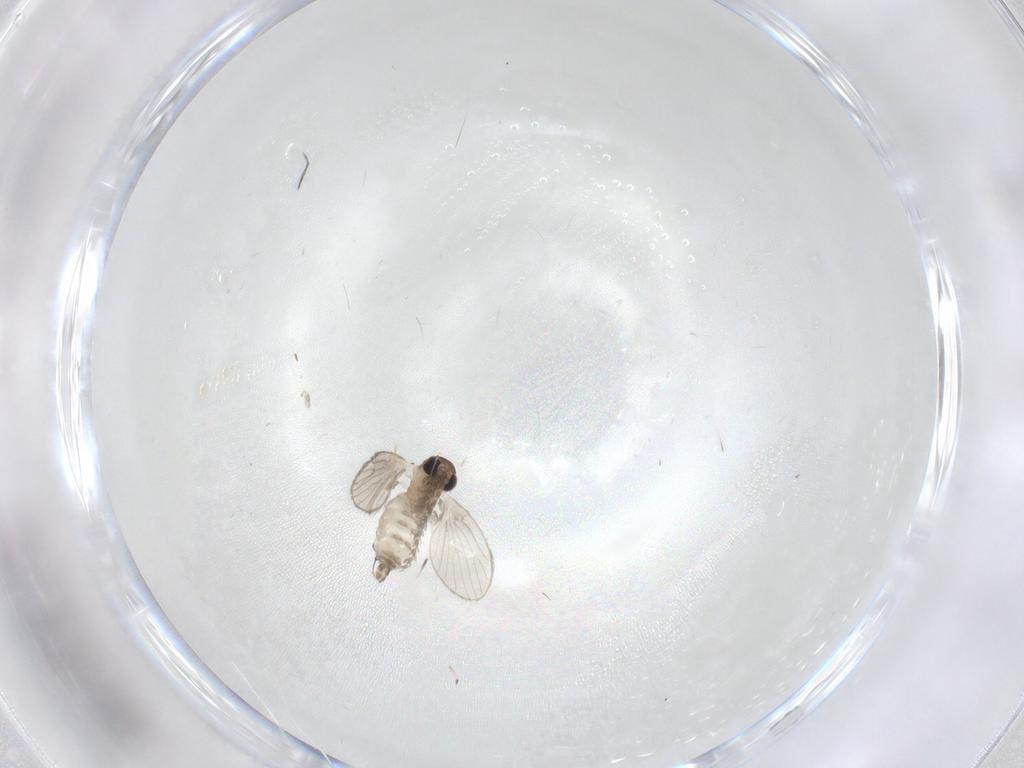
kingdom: Animalia
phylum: Arthropoda
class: Insecta
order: Diptera
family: Cecidomyiidae
